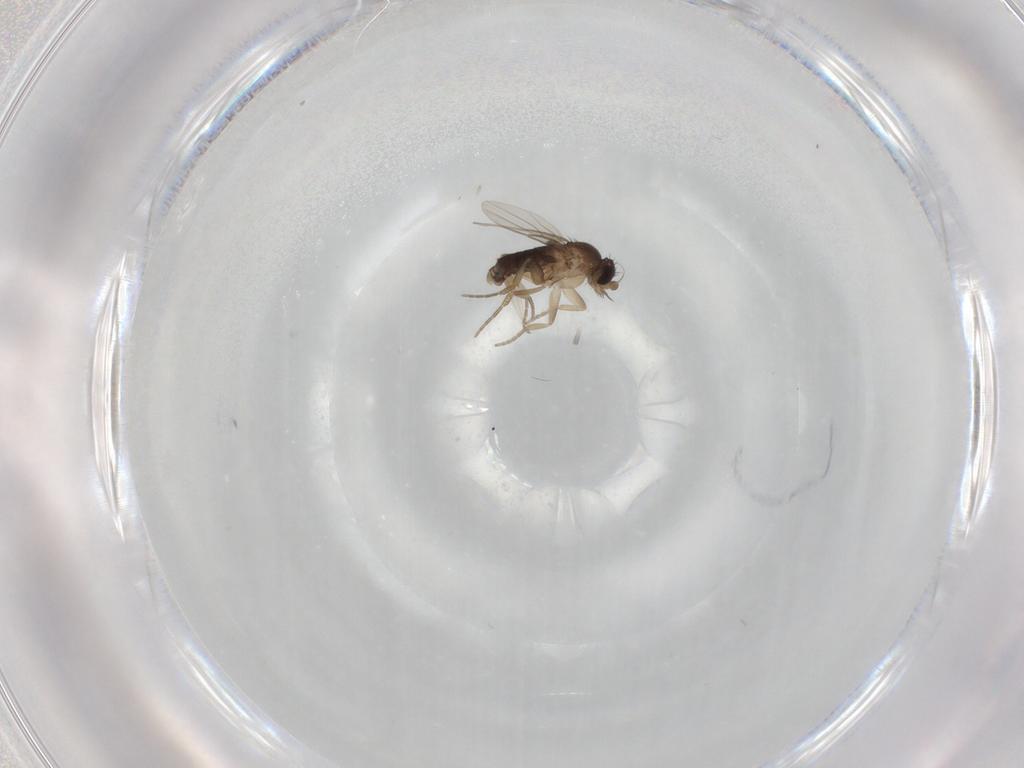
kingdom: Animalia
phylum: Arthropoda
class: Insecta
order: Diptera
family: Phoridae
